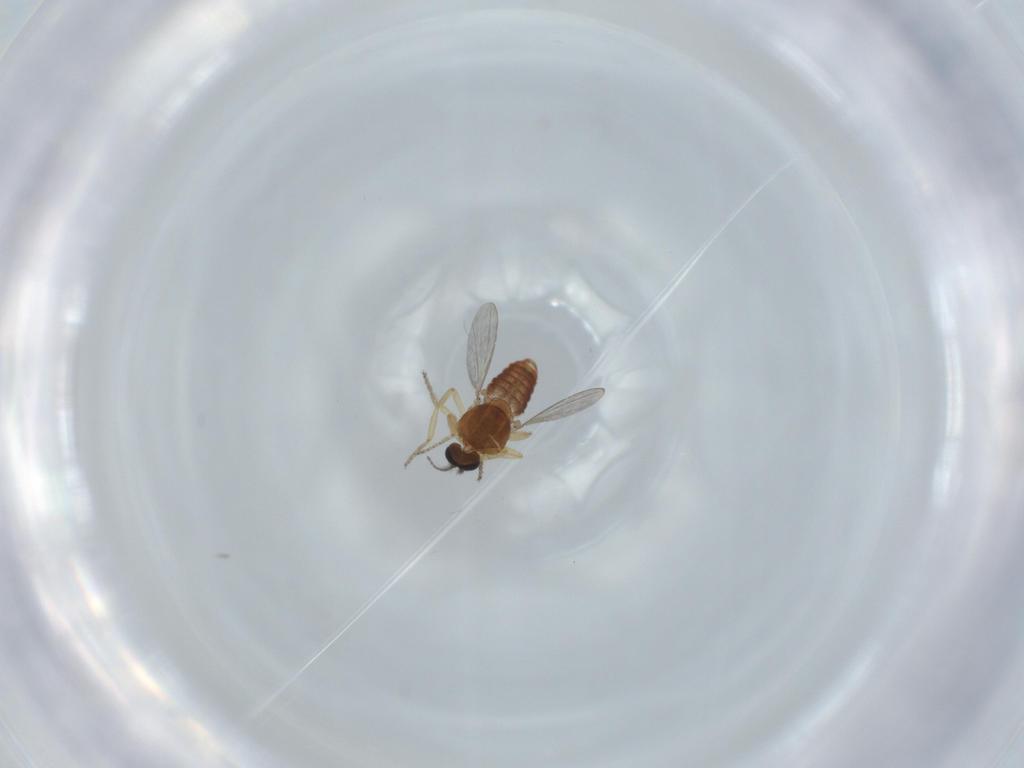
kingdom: Animalia
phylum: Arthropoda
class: Insecta
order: Diptera
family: Ceratopogonidae
